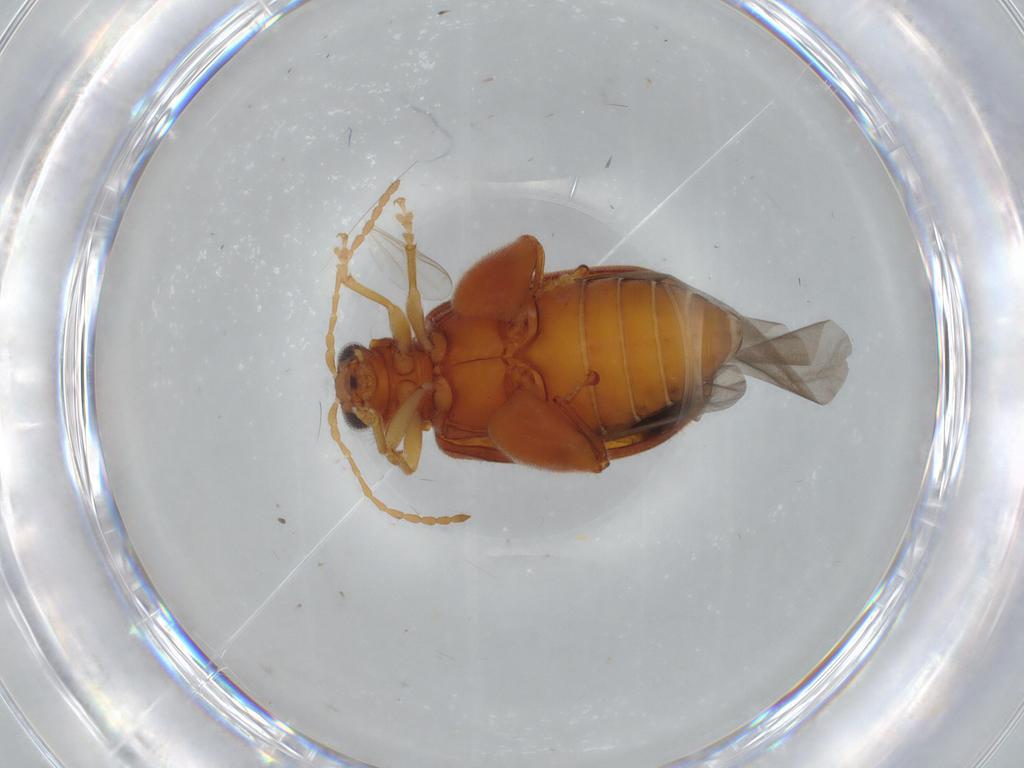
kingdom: Animalia
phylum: Arthropoda
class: Insecta
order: Coleoptera
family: Chrysomelidae
